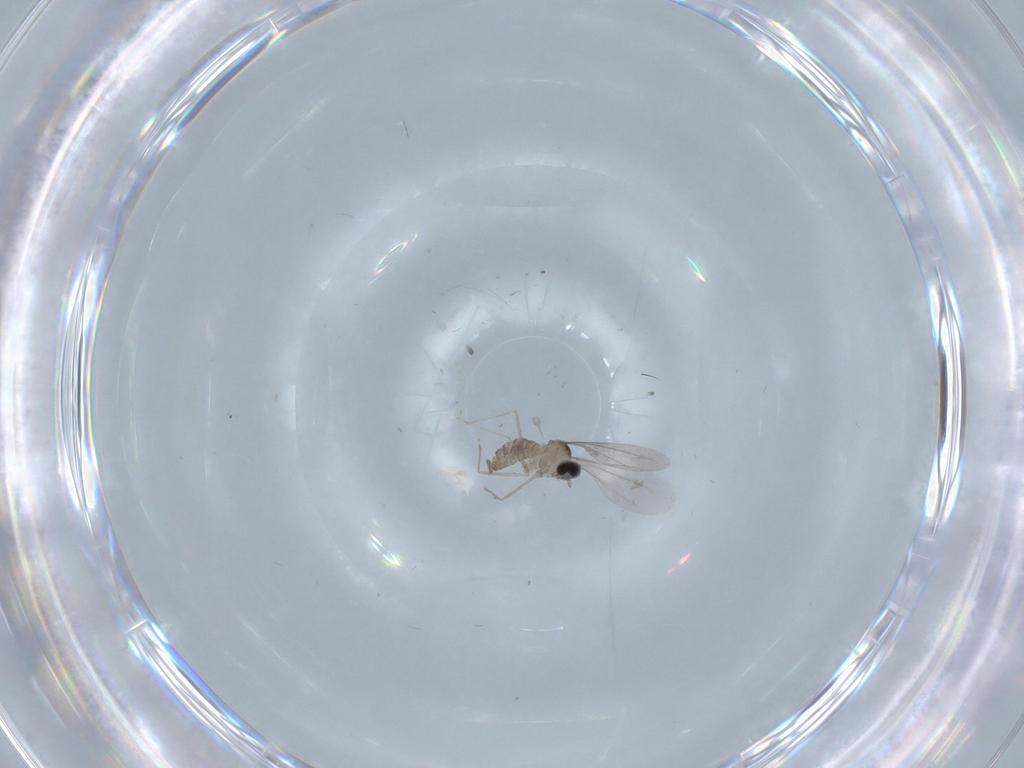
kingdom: Animalia
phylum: Arthropoda
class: Insecta
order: Diptera
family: Cecidomyiidae
